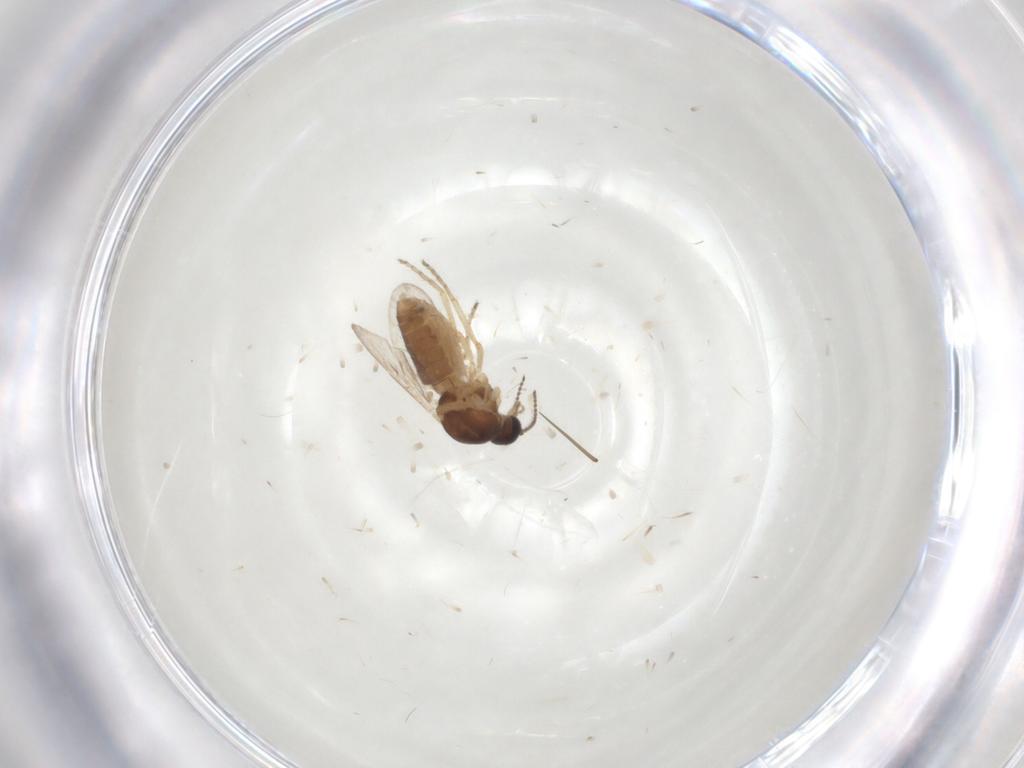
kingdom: Animalia
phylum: Arthropoda
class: Insecta
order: Diptera
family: Ceratopogonidae
